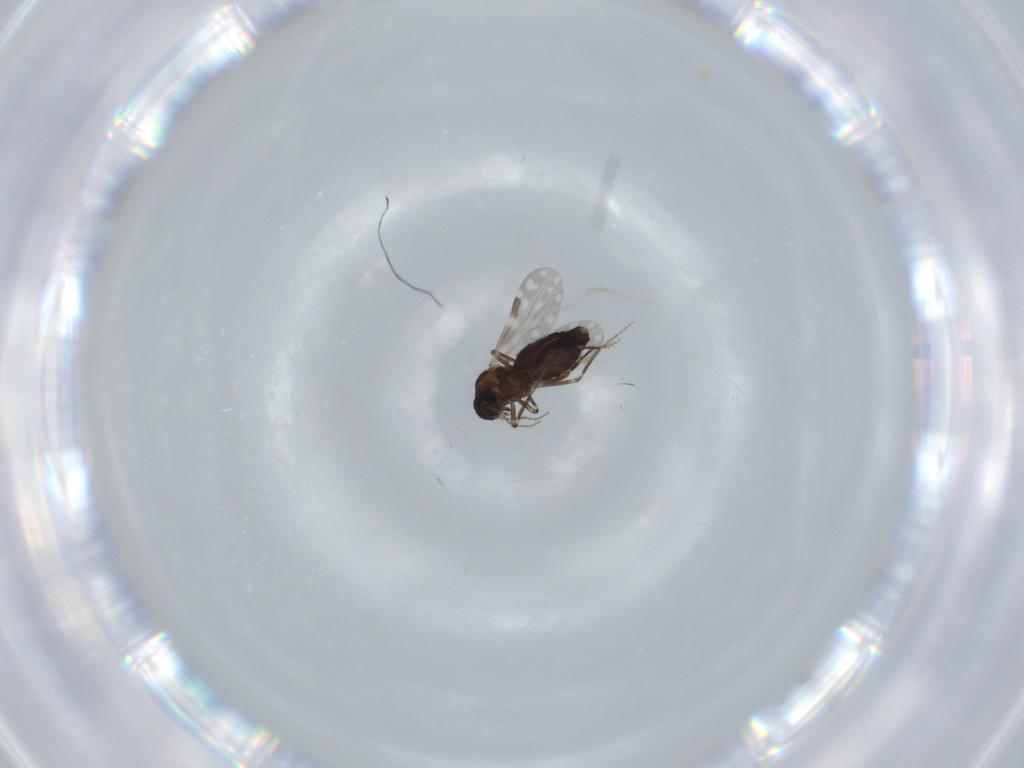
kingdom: Animalia
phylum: Arthropoda
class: Insecta
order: Diptera
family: Ceratopogonidae
